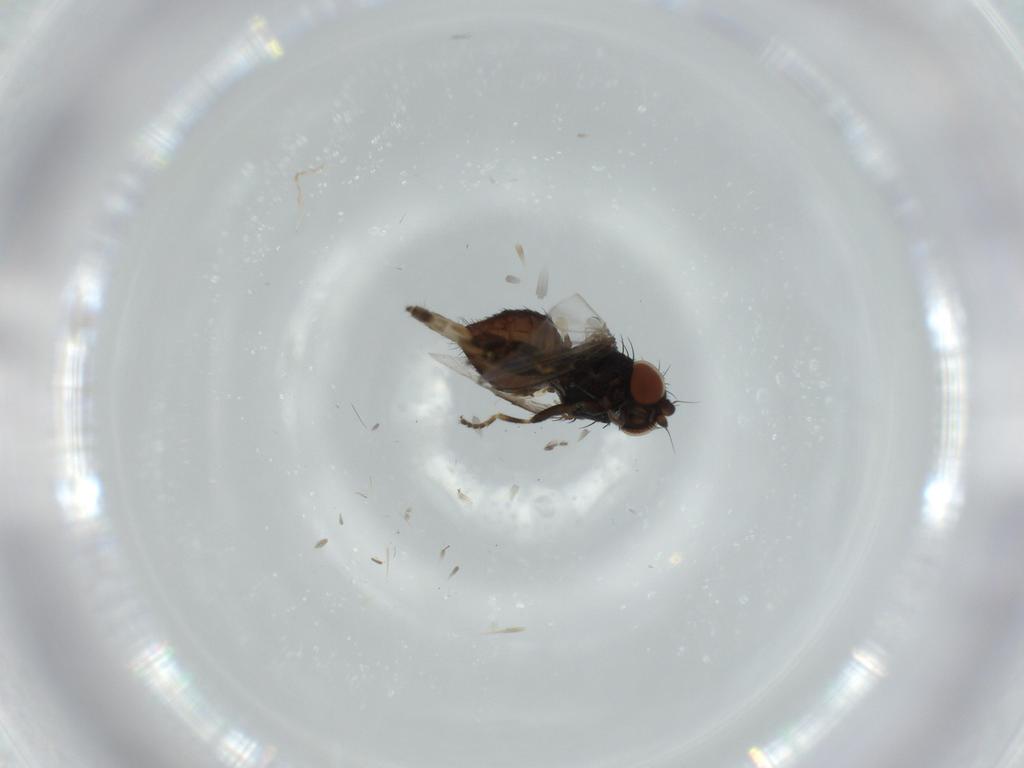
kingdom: Animalia
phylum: Arthropoda
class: Insecta
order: Diptera
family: Milichiidae
